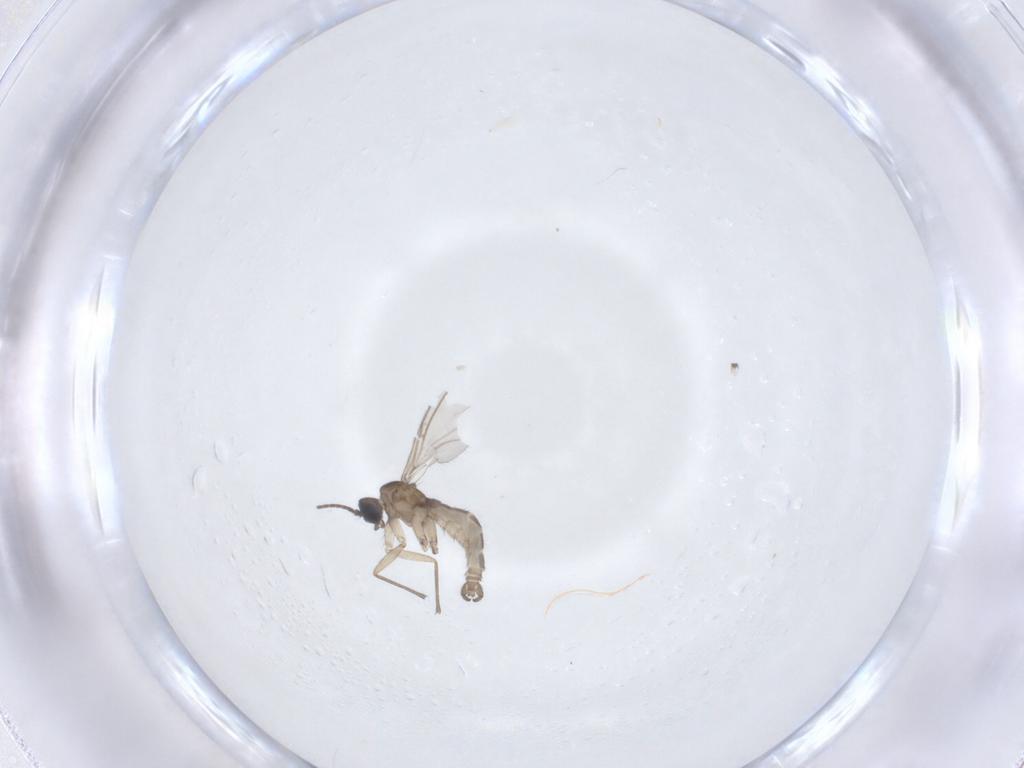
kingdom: Animalia
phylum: Arthropoda
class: Insecta
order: Diptera
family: Sciaridae
